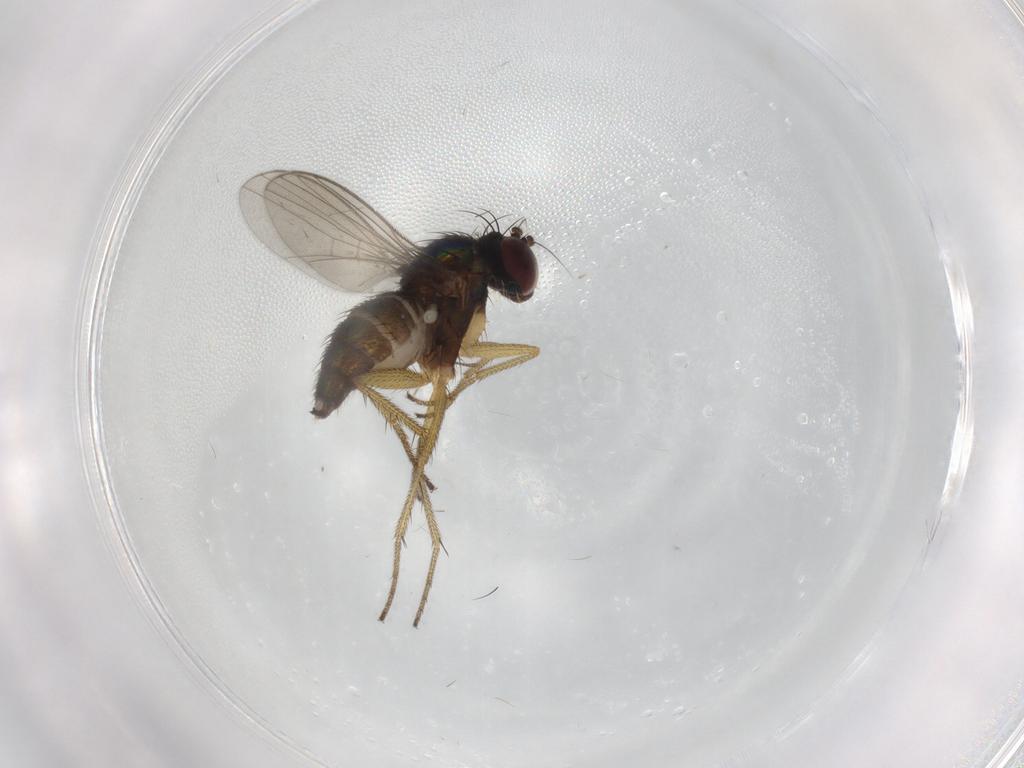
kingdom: Animalia
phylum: Arthropoda
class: Insecta
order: Diptera
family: Dolichopodidae
